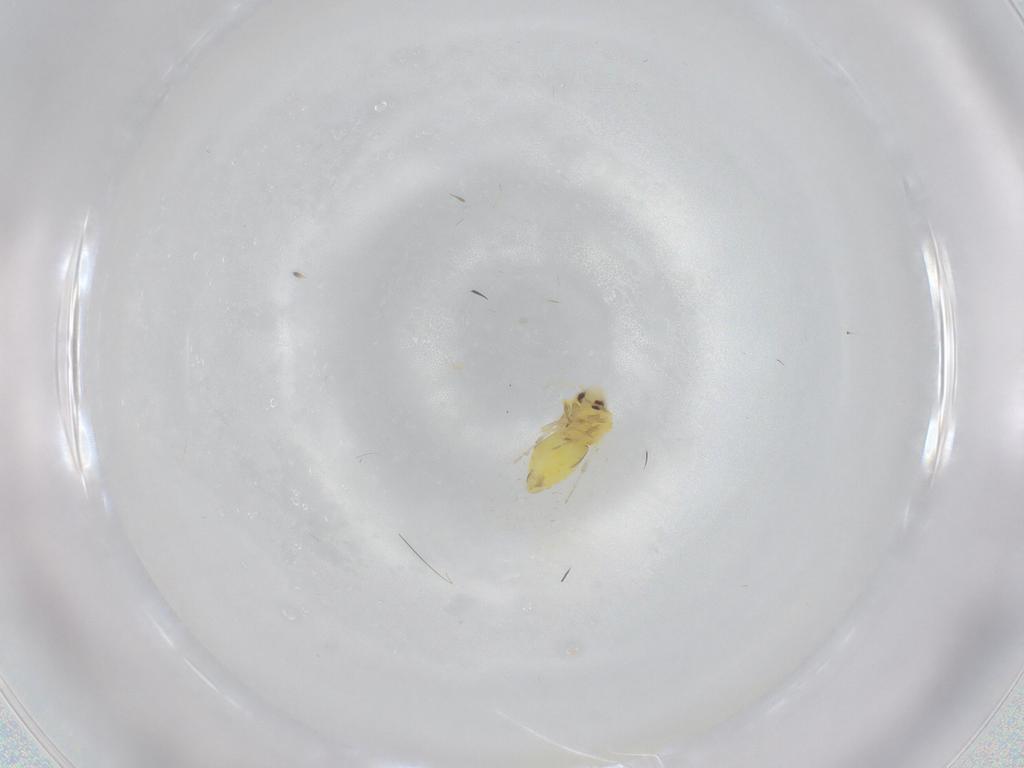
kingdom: Animalia
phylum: Arthropoda
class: Insecta
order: Hemiptera
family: Aleyrodidae
